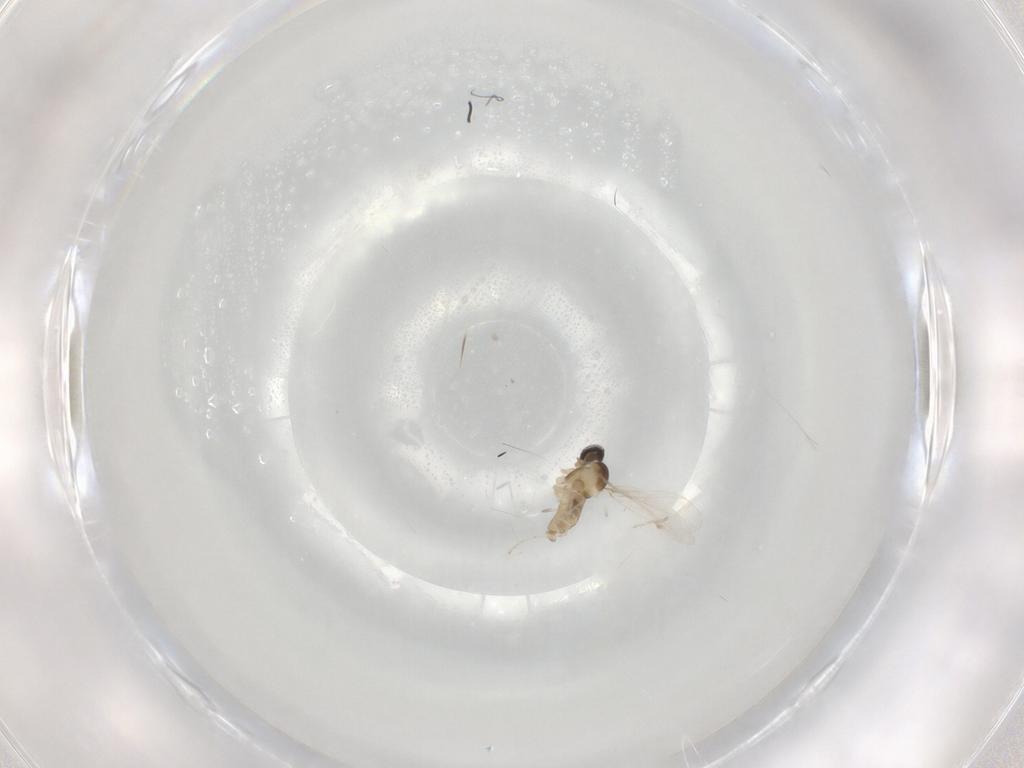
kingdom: Animalia
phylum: Arthropoda
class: Insecta
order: Diptera
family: Cecidomyiidae
